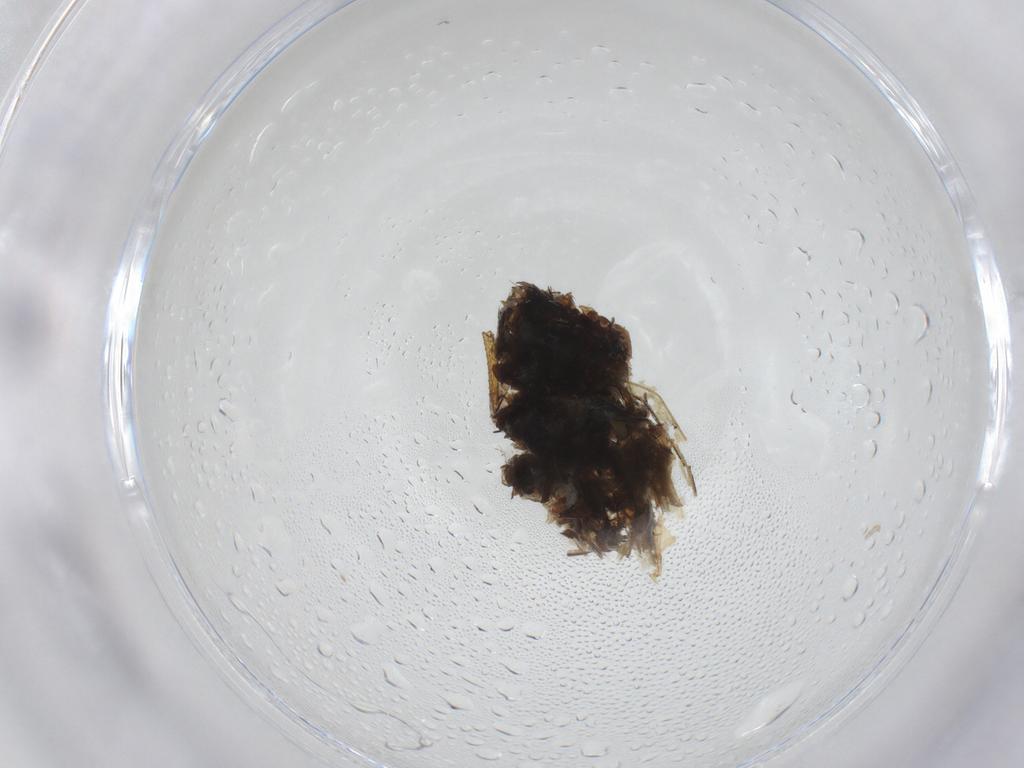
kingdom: Animalia
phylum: Arthropoda
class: Insecta
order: Diptera
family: Chironomidae
